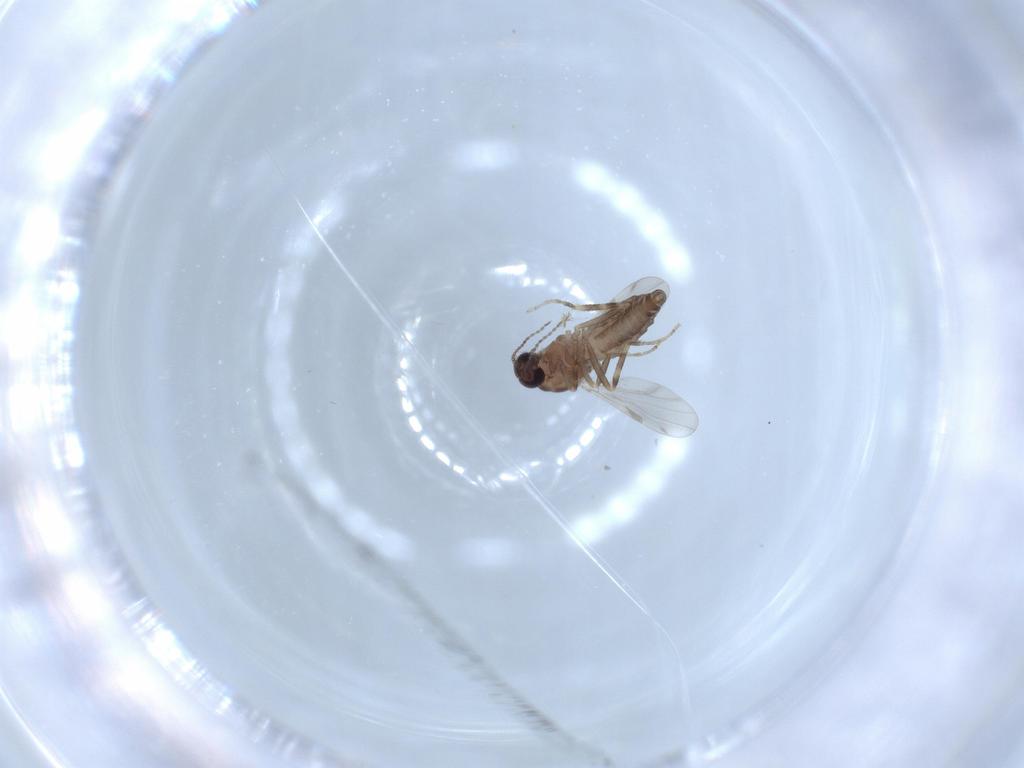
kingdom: Animalia
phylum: Arthropoda
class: Insecta
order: Diptera
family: Ceratopogonidae
